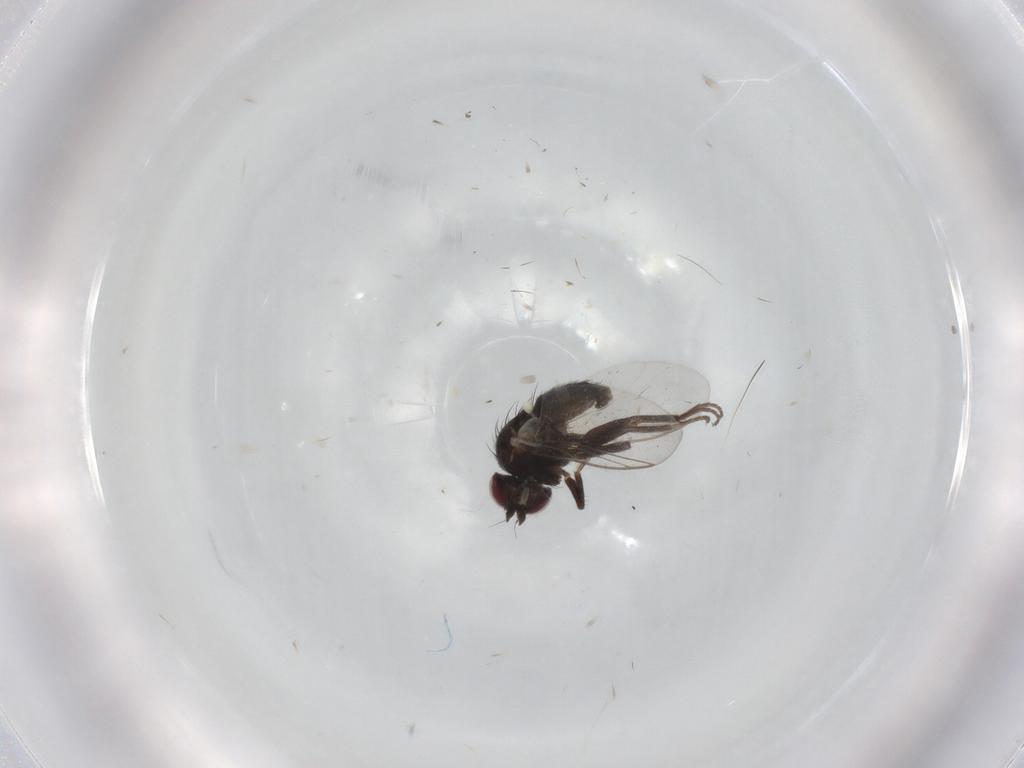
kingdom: Animalia
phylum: Arthropoda
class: Insecta
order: Diptera
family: Agromyzidae
